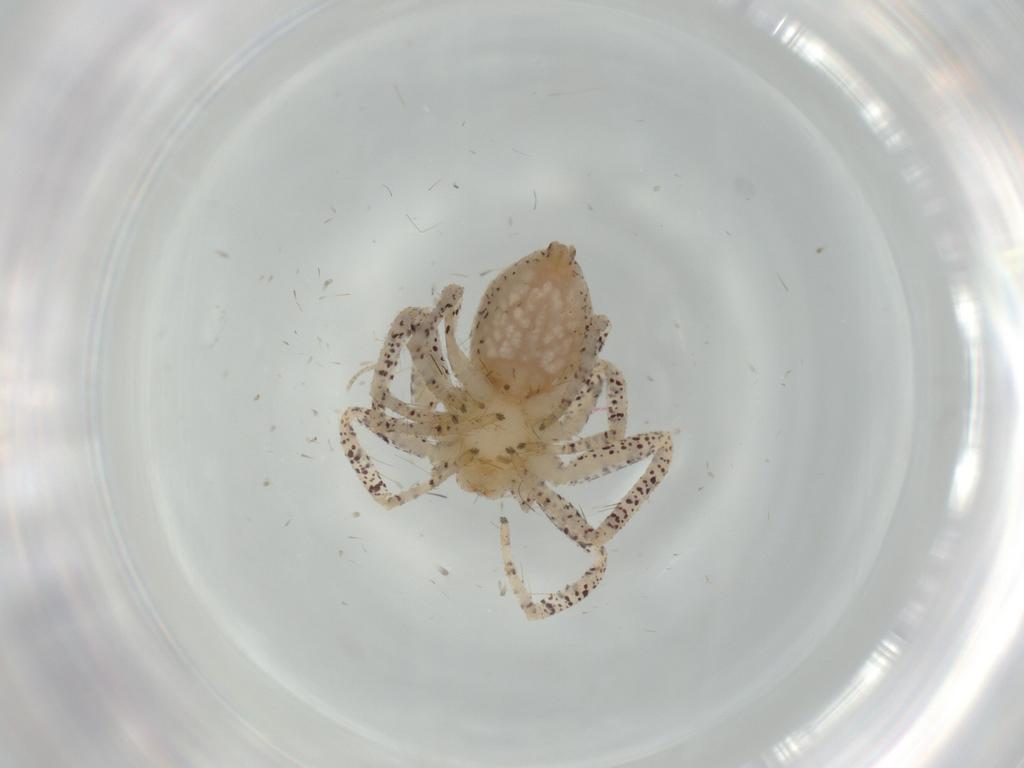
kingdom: Animalia
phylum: Arthropoda
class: Arachnida
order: Araneae
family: Philodromidae
